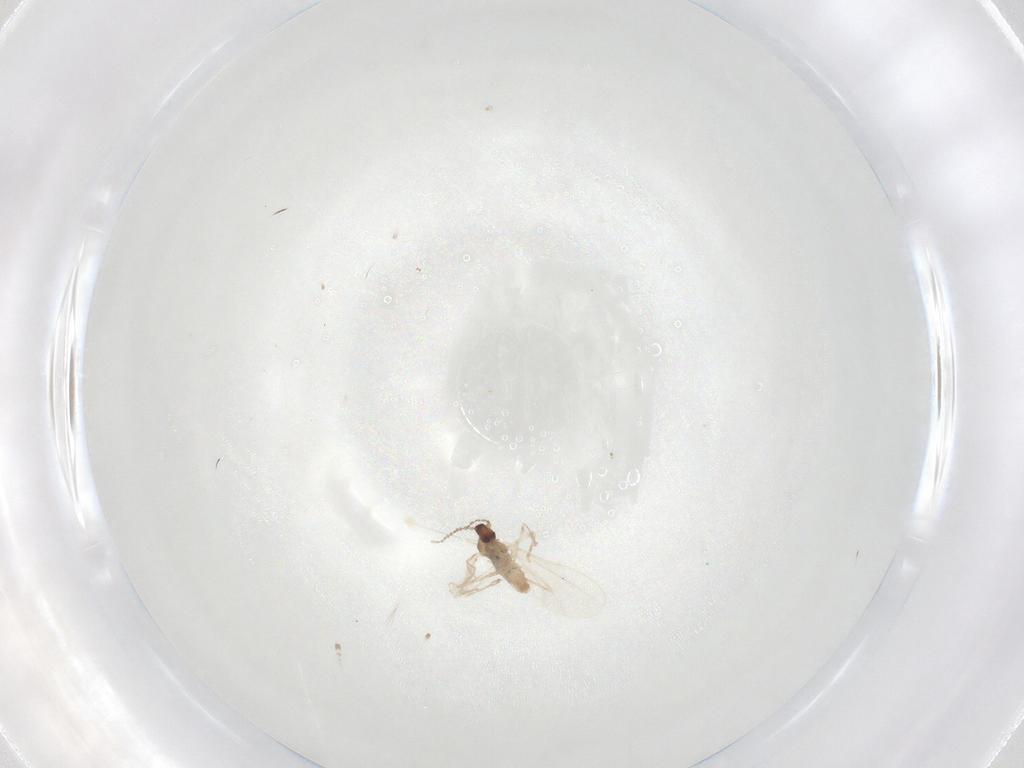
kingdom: Animalia
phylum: Arthropoda
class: Insecta
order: Diptera
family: Cecidomyiidae
